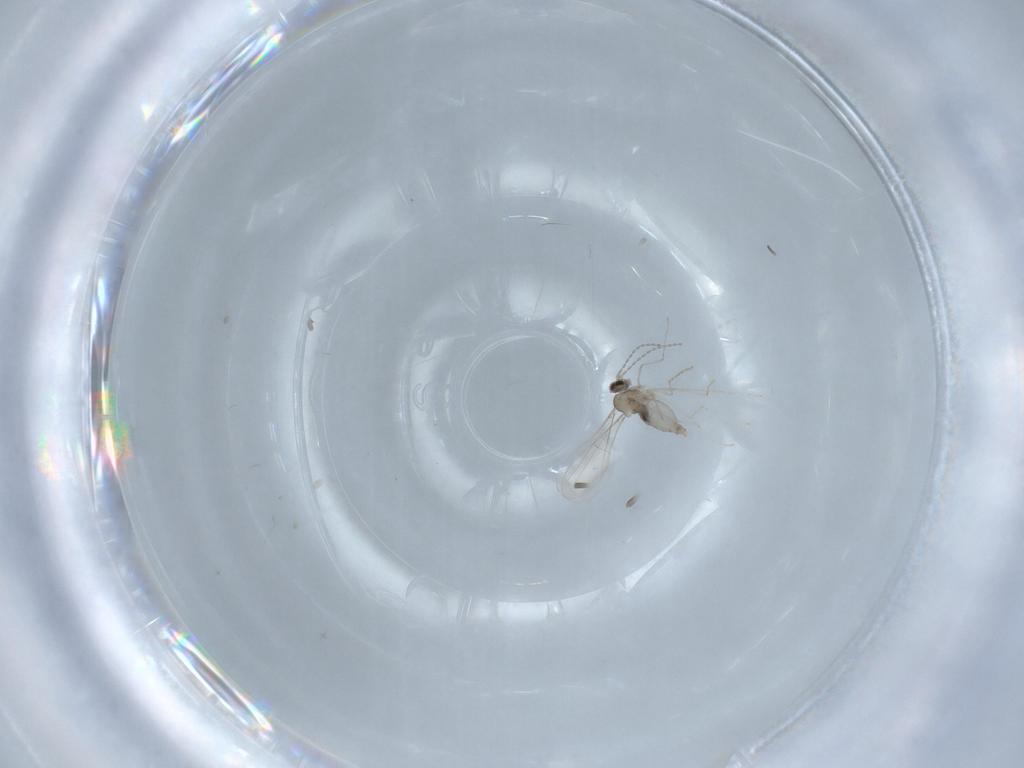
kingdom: Animalia
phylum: Arthropoda
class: Insecta
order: Diptera
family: Cecidomyiidae
